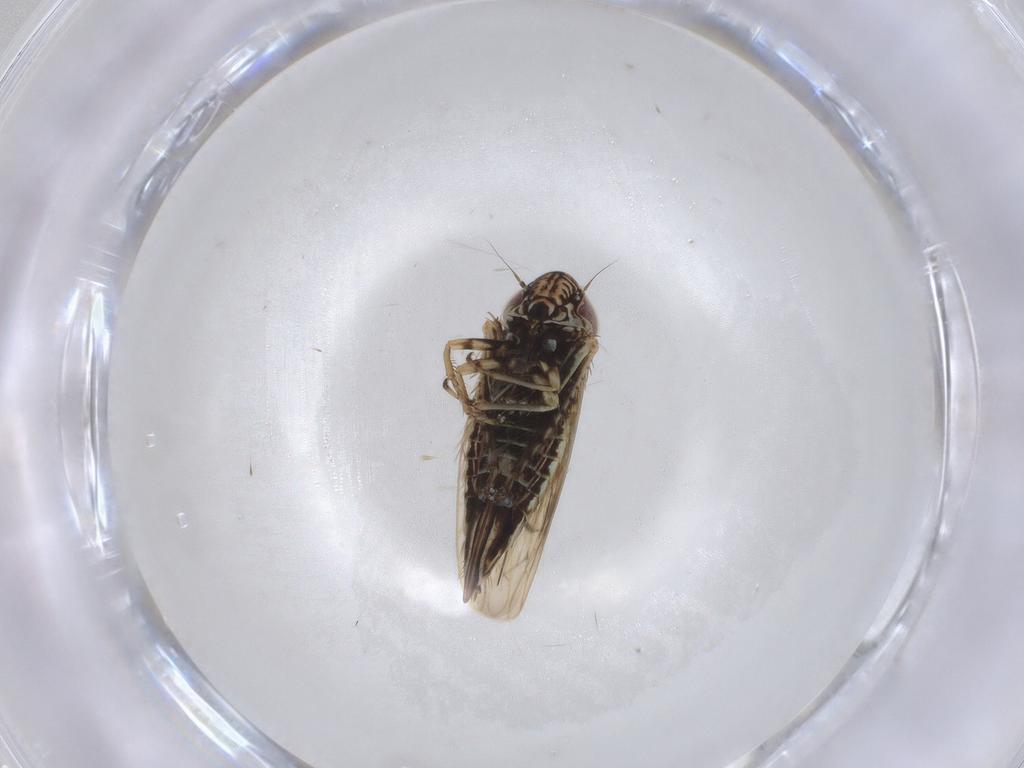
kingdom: Animalia
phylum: Arthropoda
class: Insecta
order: Hemiptera
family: Cicadellidae
